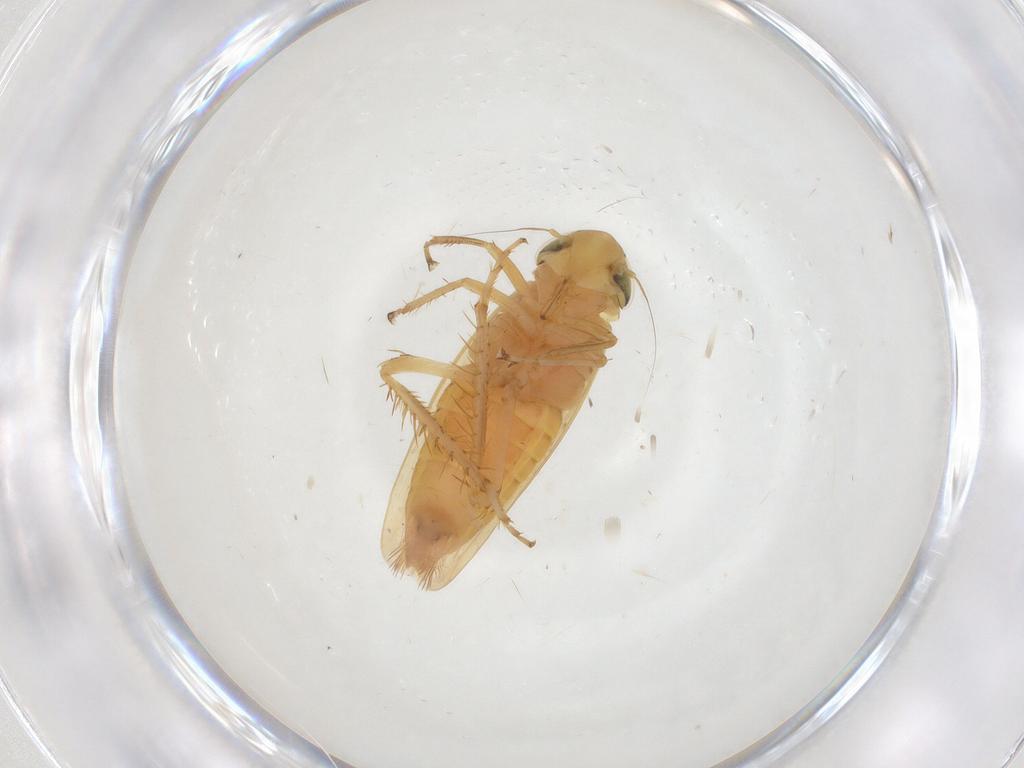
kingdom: Animalia
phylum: Arthropoda
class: Insecta
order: Hemiptera
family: Cicadellidae
